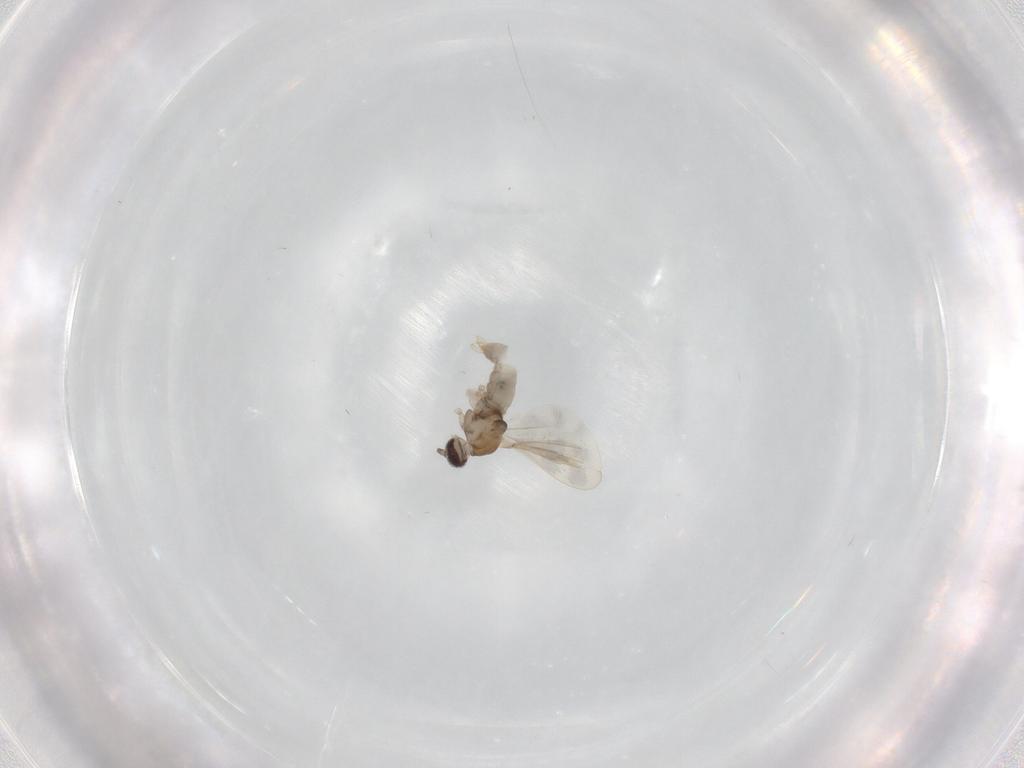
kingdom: Animalia
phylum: Arthropoda
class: Insecta
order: Diptera
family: Cecidomyiidae
